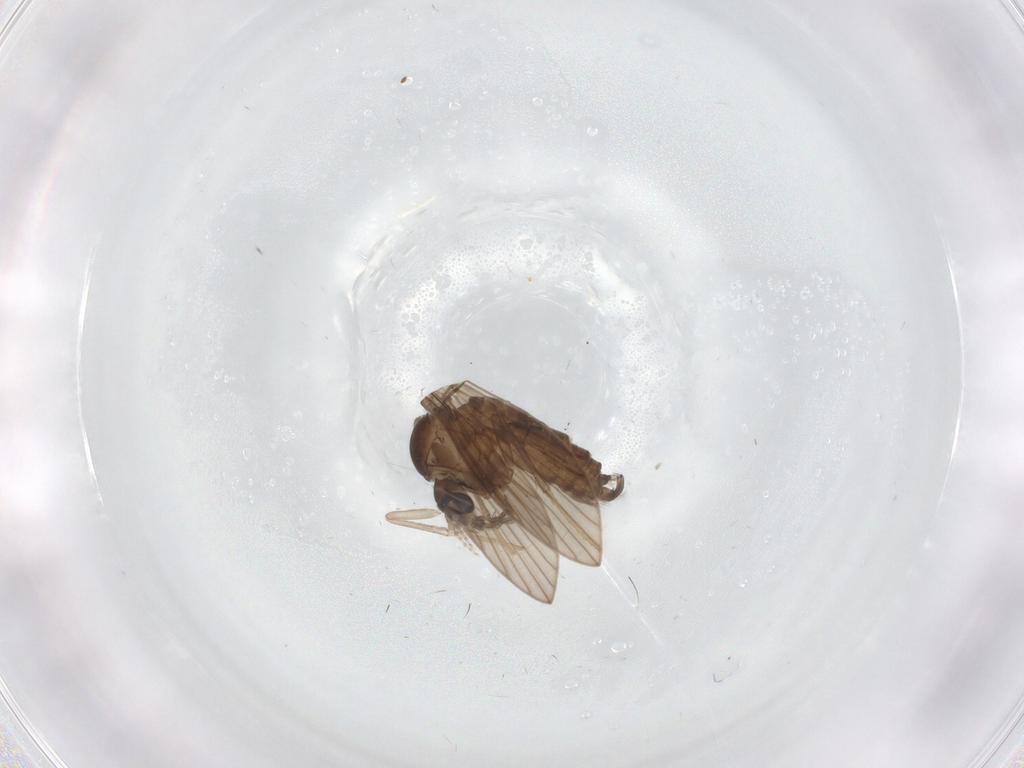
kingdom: Animalia
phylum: Arthropoda
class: Insecta
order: Diptera
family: Psychodidae
